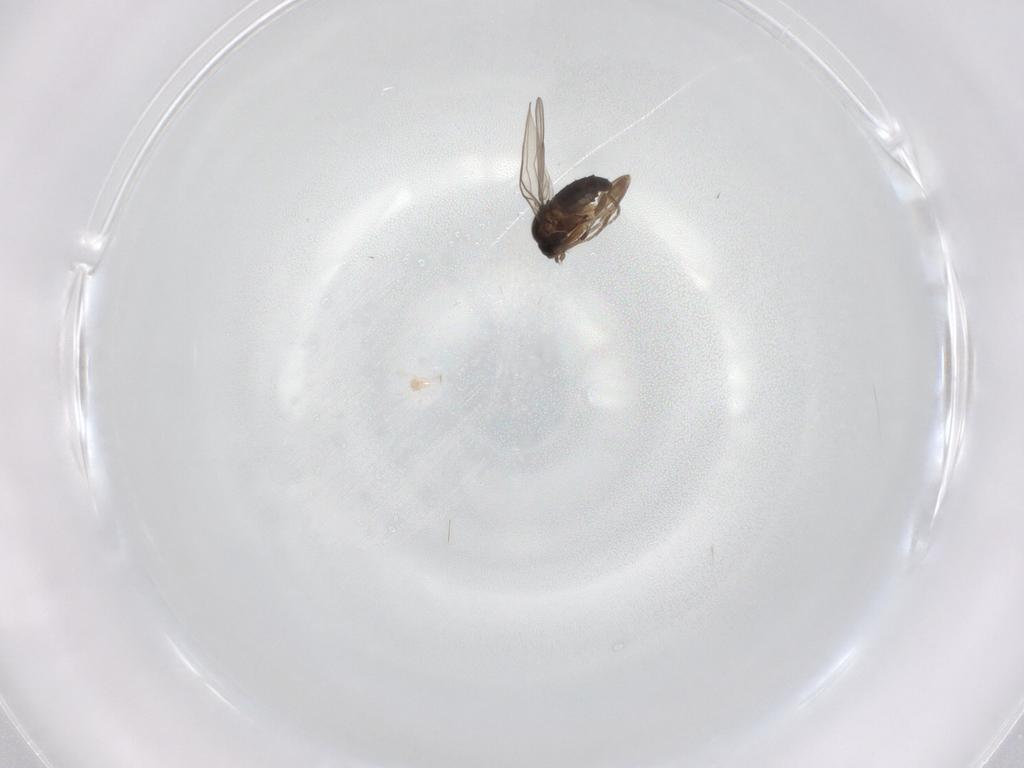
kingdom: Animalia
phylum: Arthropoda
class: Insecta
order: Diptera
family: Phoridae
